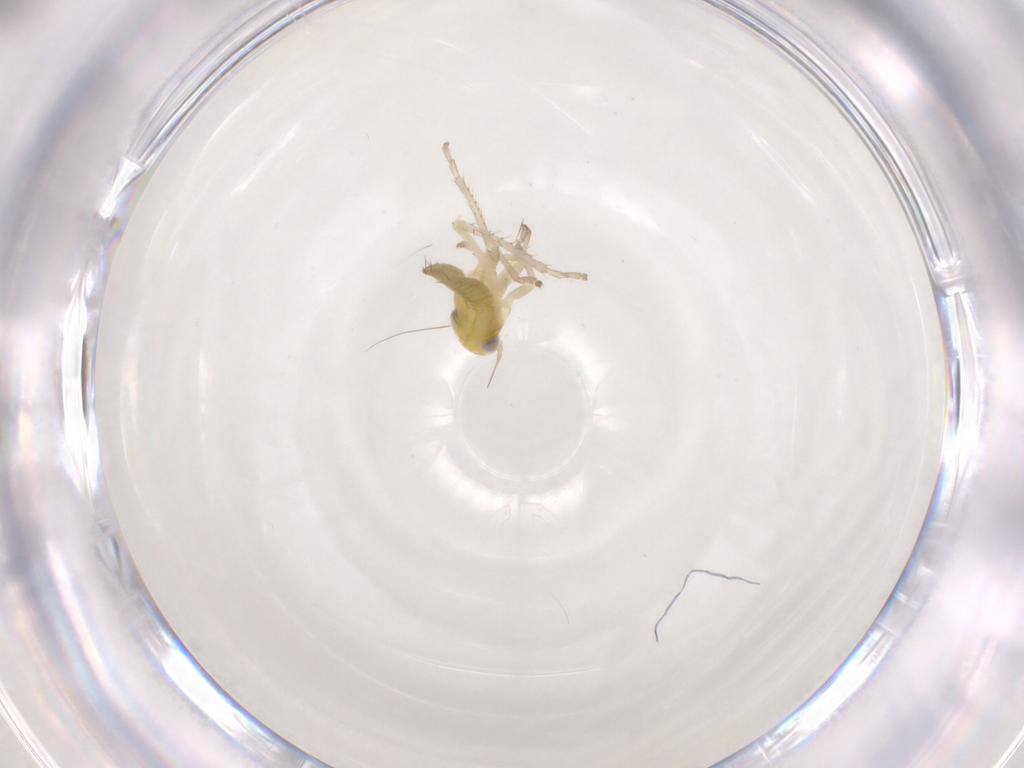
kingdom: Animalia
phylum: Arthropoda
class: Insecta
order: Hemiptera
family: Cicadellidae
